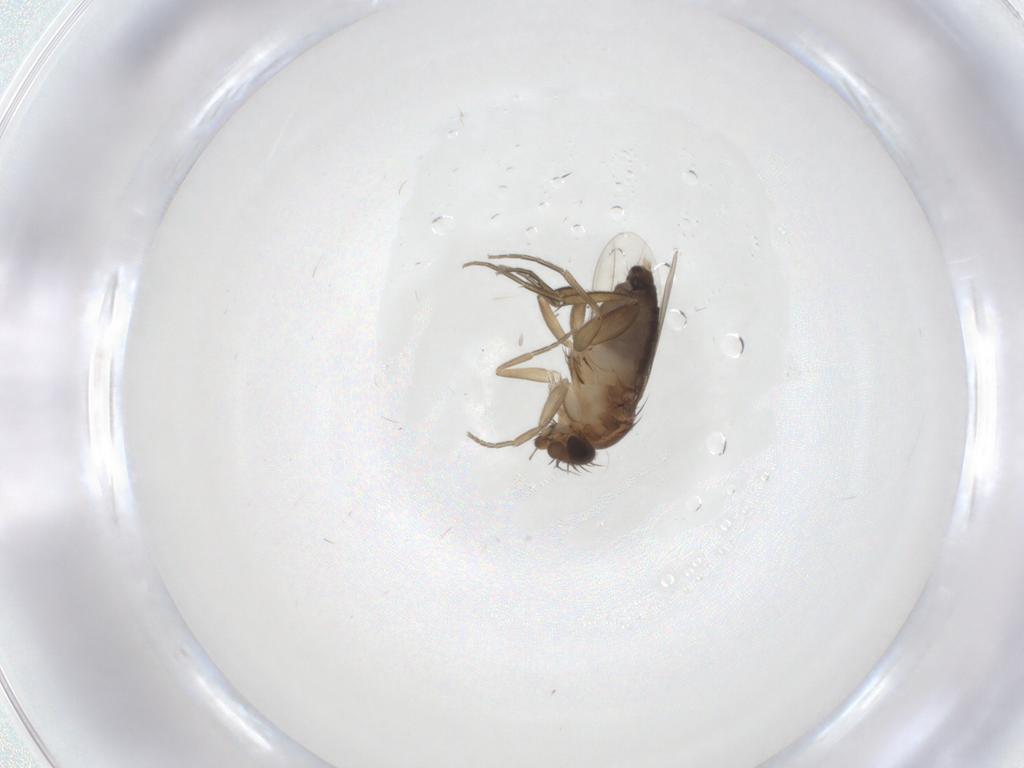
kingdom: Animalia
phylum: Arthropoda
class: Insecta
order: Diptera
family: Phoridae
